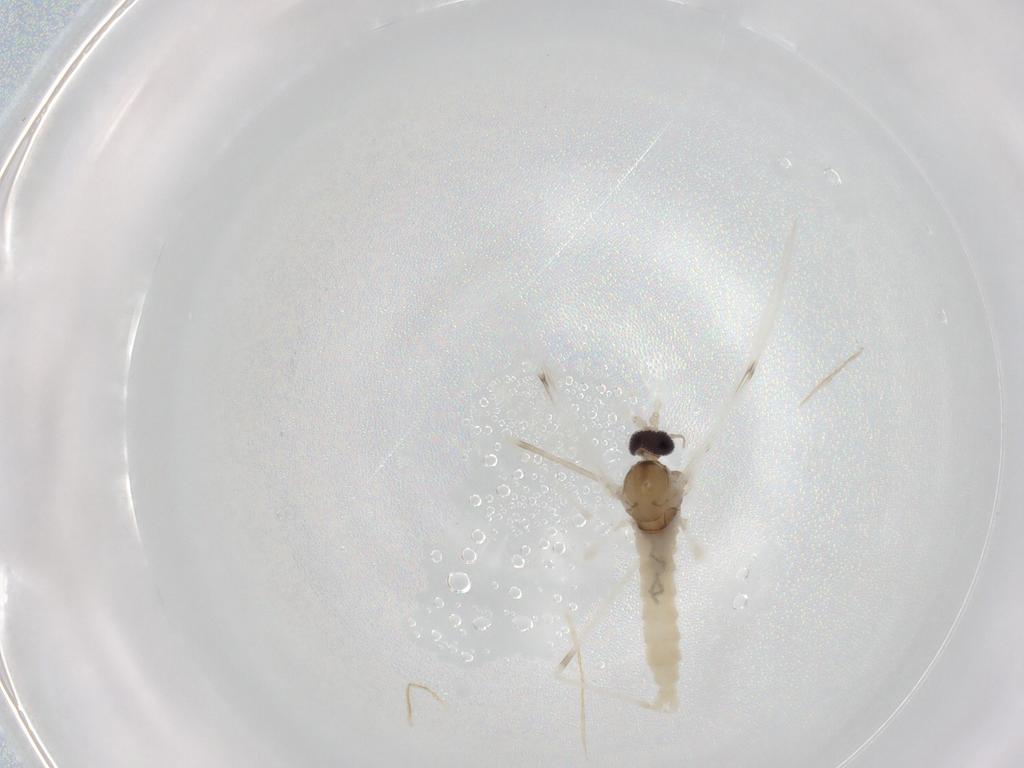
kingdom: Animalia
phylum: Arthropoda
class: Insecta
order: Diptera
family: Cecidomyiidae
